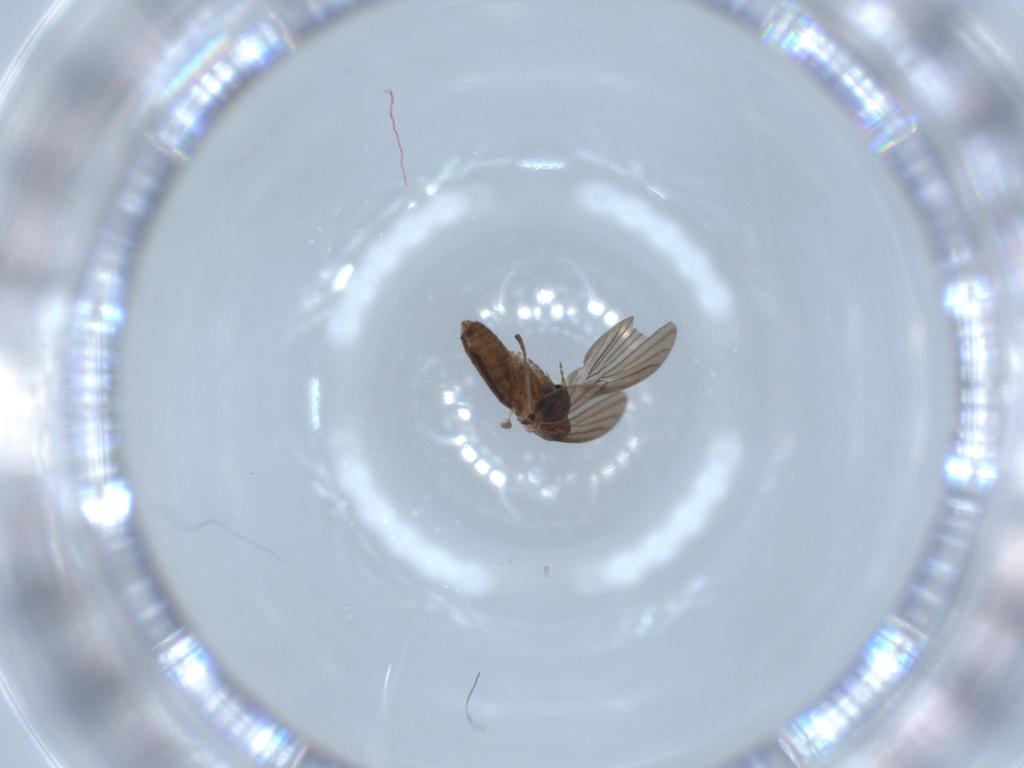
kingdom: Animalia
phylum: Arthropoda
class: Insecta
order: Diptera
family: Psychodidae
